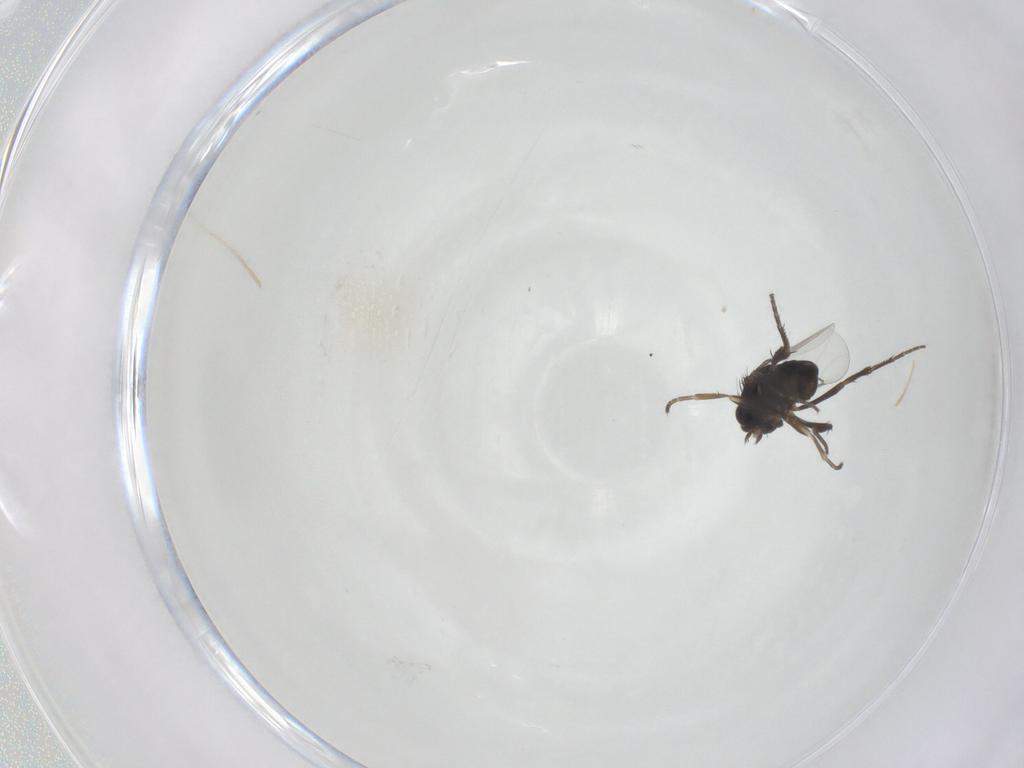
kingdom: Animalia
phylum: Arthropoda
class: Insecta
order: Diptera
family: Phoridae
